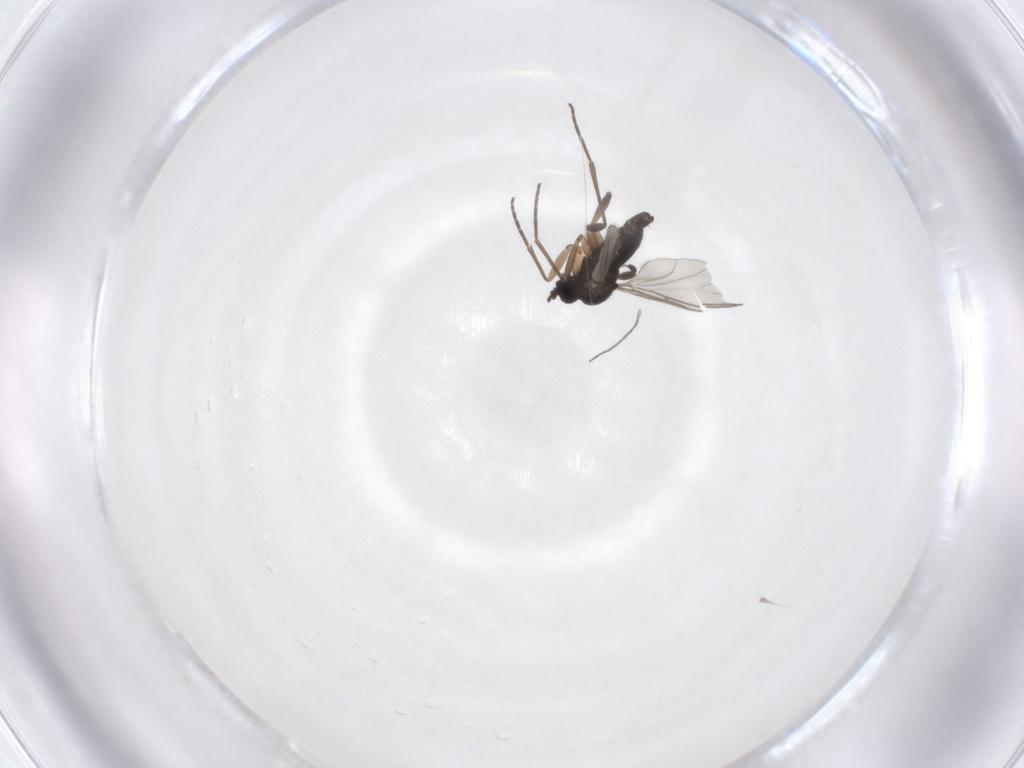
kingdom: Animalia
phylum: Arthropoda
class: Insecta
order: Diptera
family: Sciaridae
